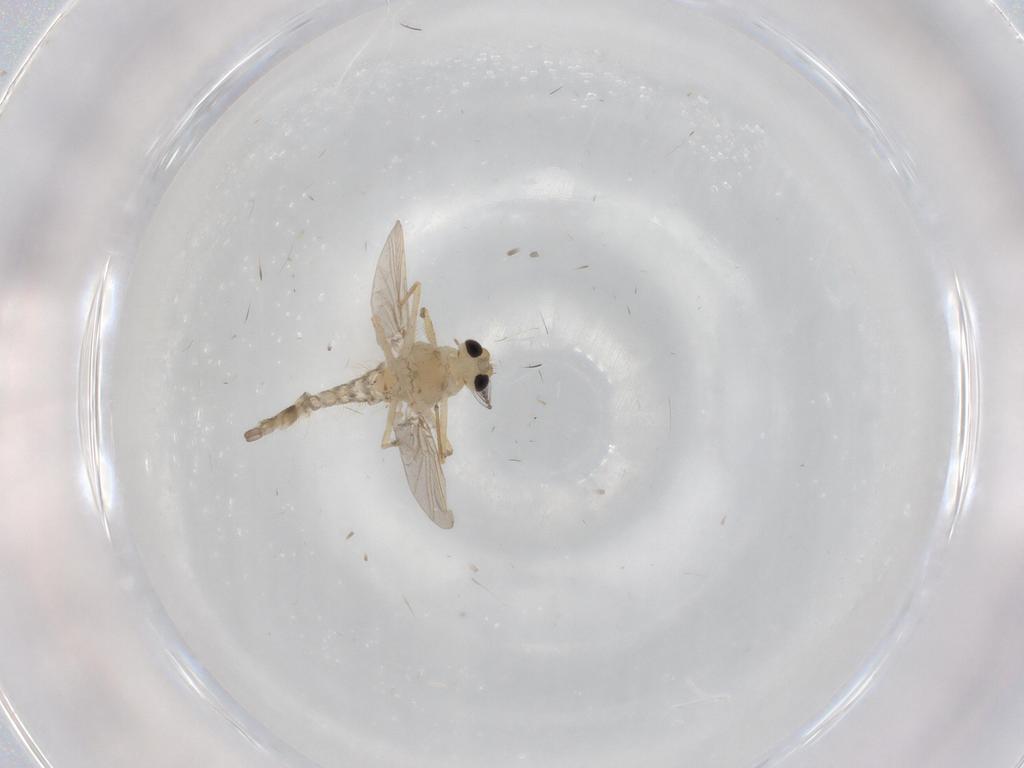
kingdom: Animalia
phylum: Arthropoda
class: Insecta
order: Diptera
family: Chironomidae
